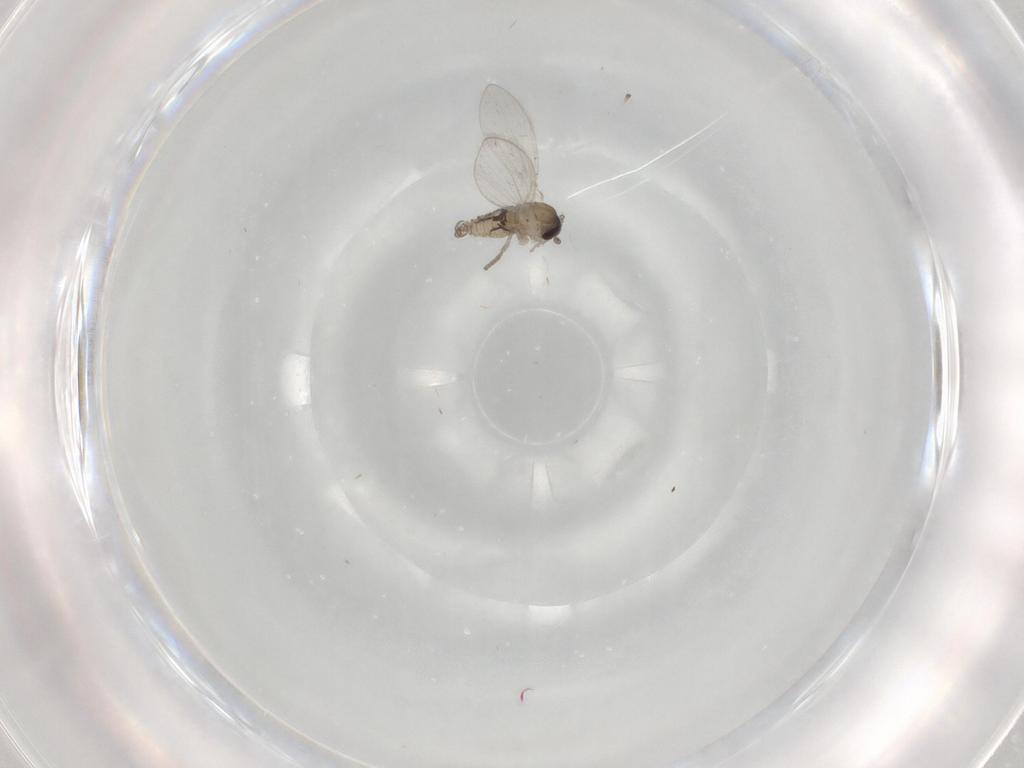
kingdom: Animalia
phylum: Arthropoda
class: Insecta
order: Diptera
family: Psychodidae
